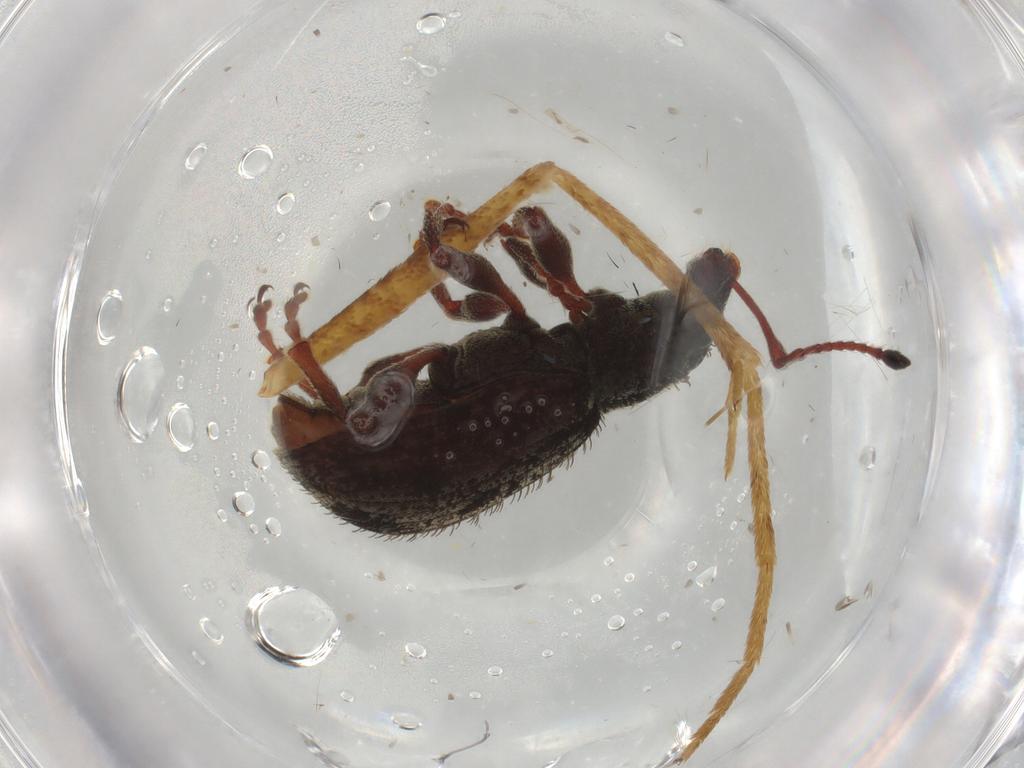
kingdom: Animalia
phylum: Arthropoda
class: Insecta
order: Coleoptera
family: Curculionidae
